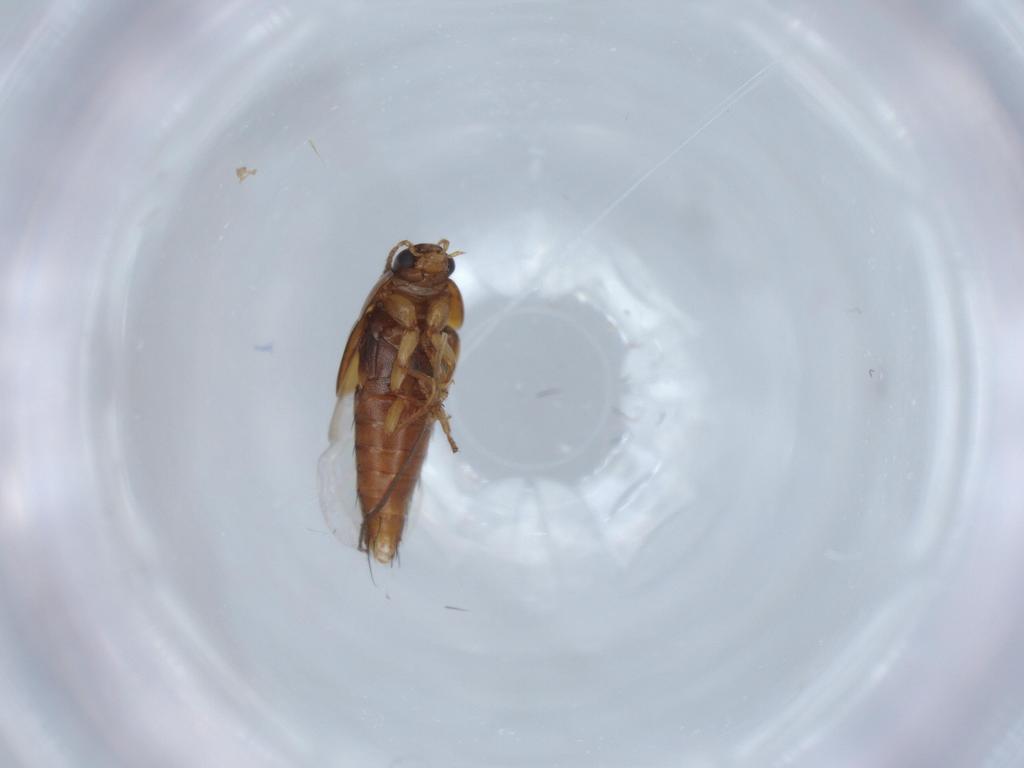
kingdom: Animalia
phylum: Arthropoda
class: Insecta
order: Coleoptera
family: Staphylinidae
